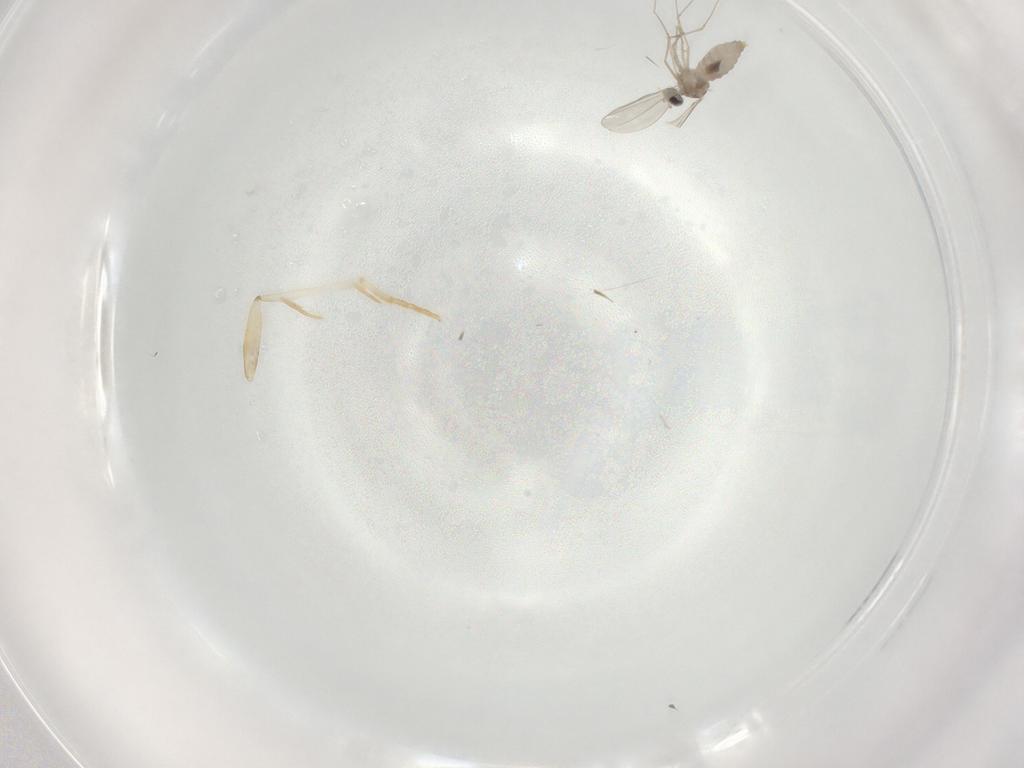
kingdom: Animalia
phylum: Arthropoda
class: Insecta
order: Diptera
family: Cecidomyiidae
